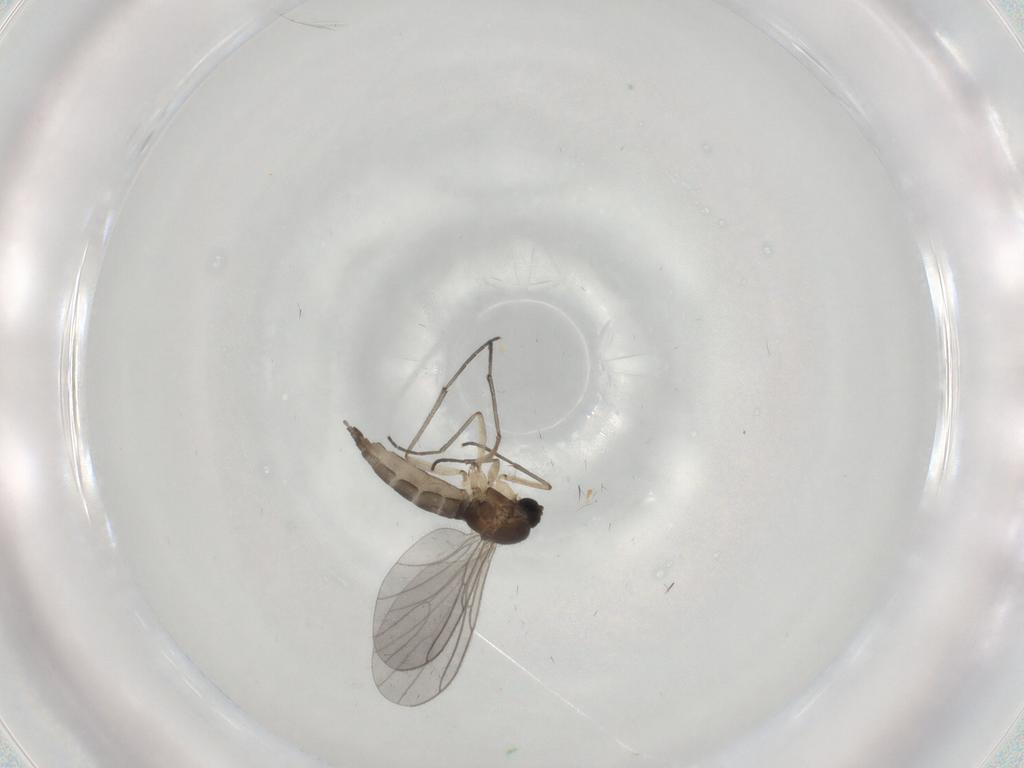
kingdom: Animalia
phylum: Arthropoda
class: Insecta
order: Diptera
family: Sciaridae
